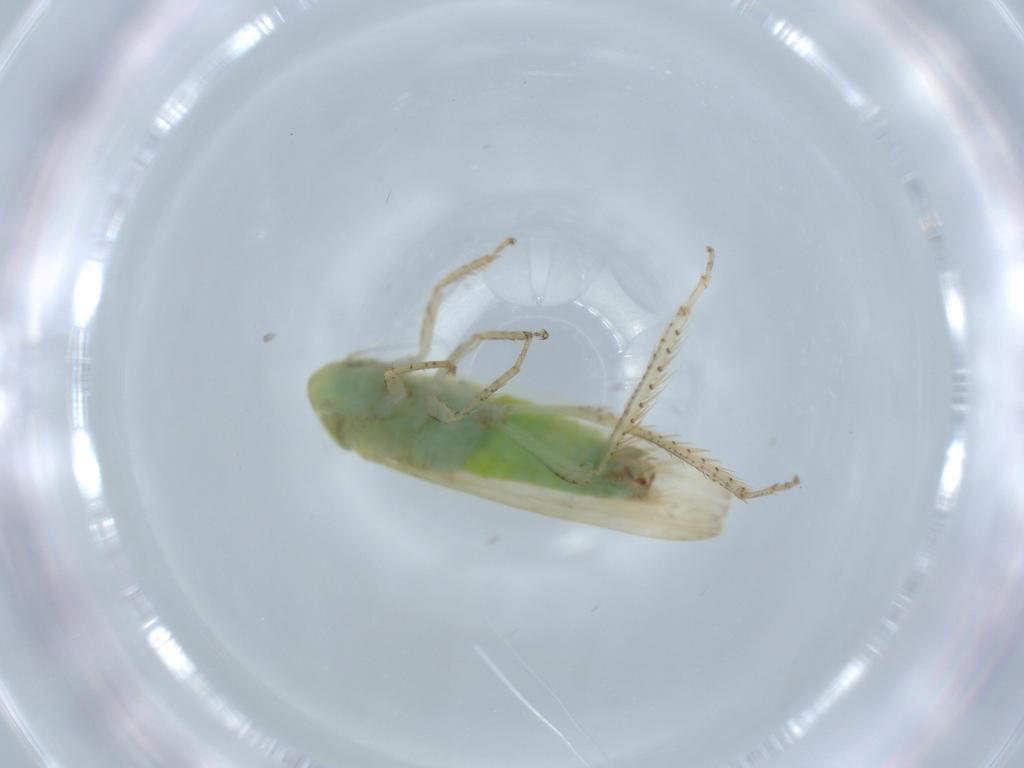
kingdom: Animalia
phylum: Arthropoda
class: Insecta
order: Hemiptera
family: Cicadellidae
